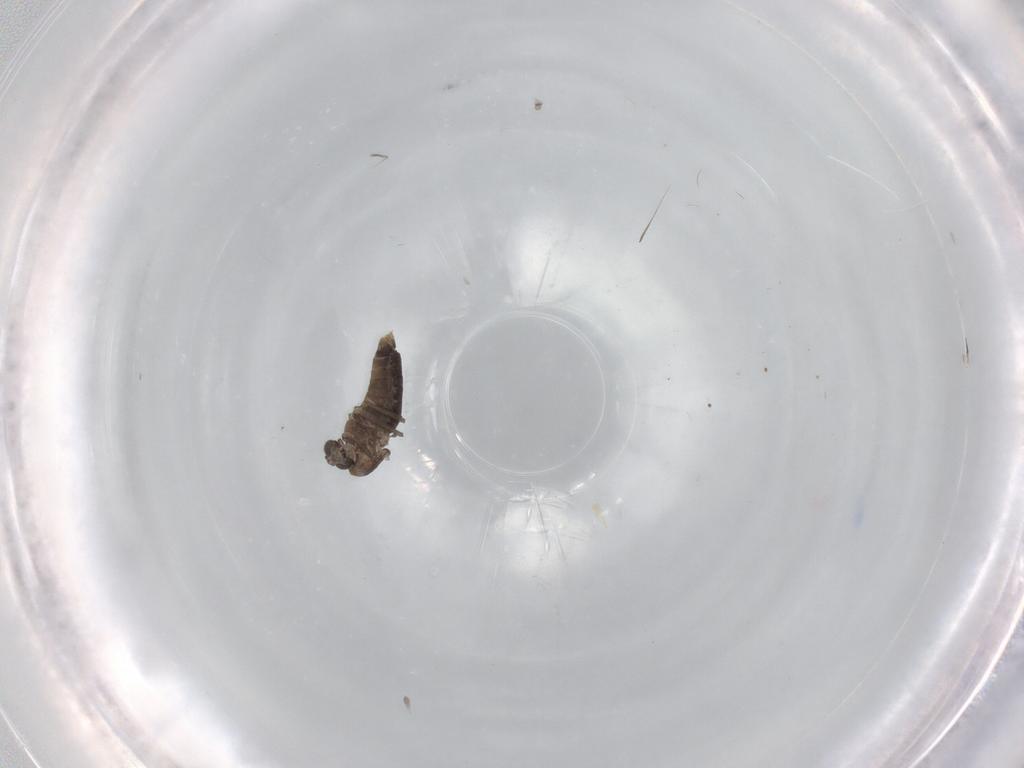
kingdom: Animalia
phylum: Arthropoda
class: Insecta
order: Diptera
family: Chironomidae
